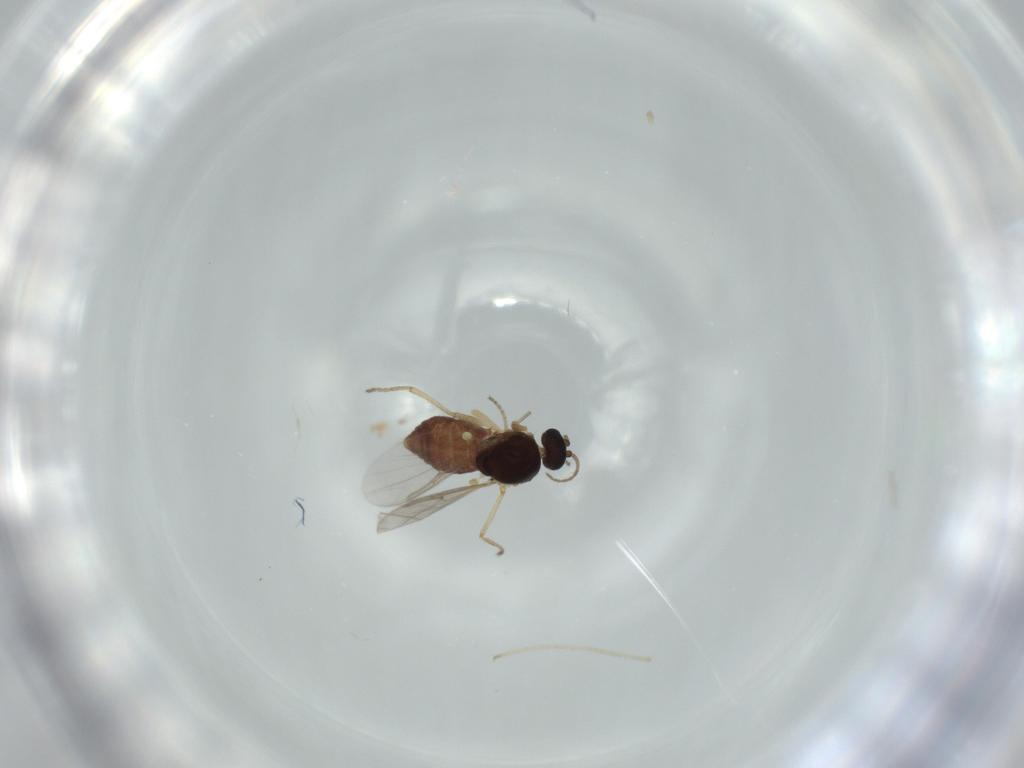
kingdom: Animalia
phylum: Arthropoda
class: Insecta
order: Diptera
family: Ceratopogonidae
